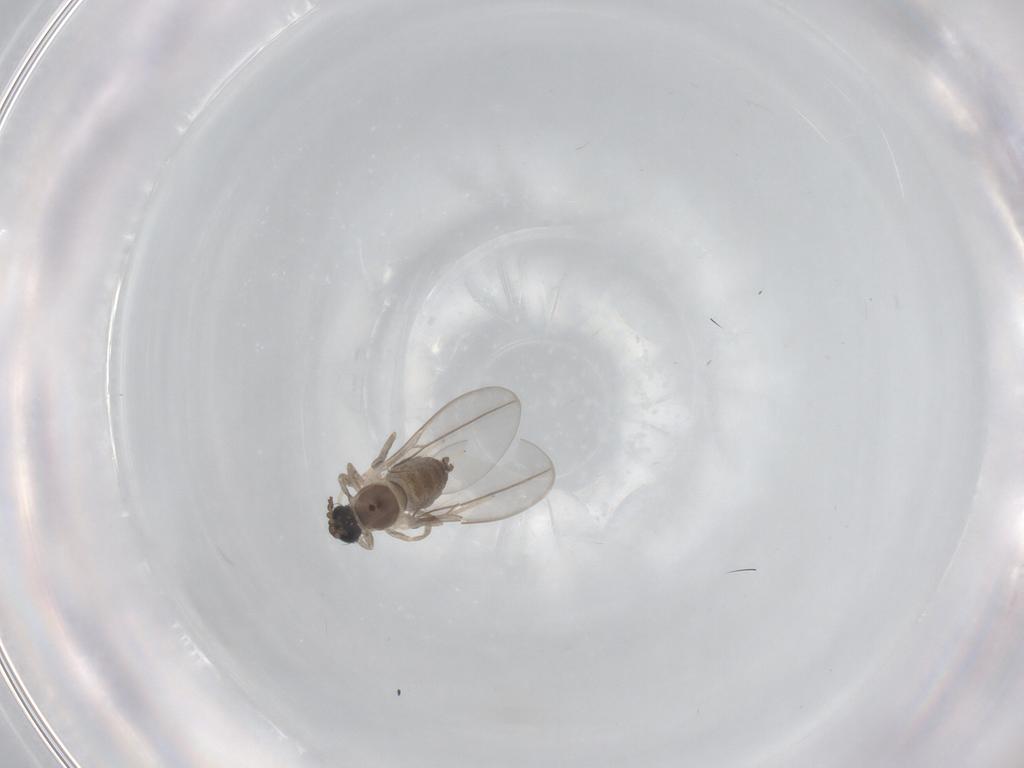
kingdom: Animalia
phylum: Arthropoda
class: Insecta
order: Diptera
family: Cecidomyiidae
